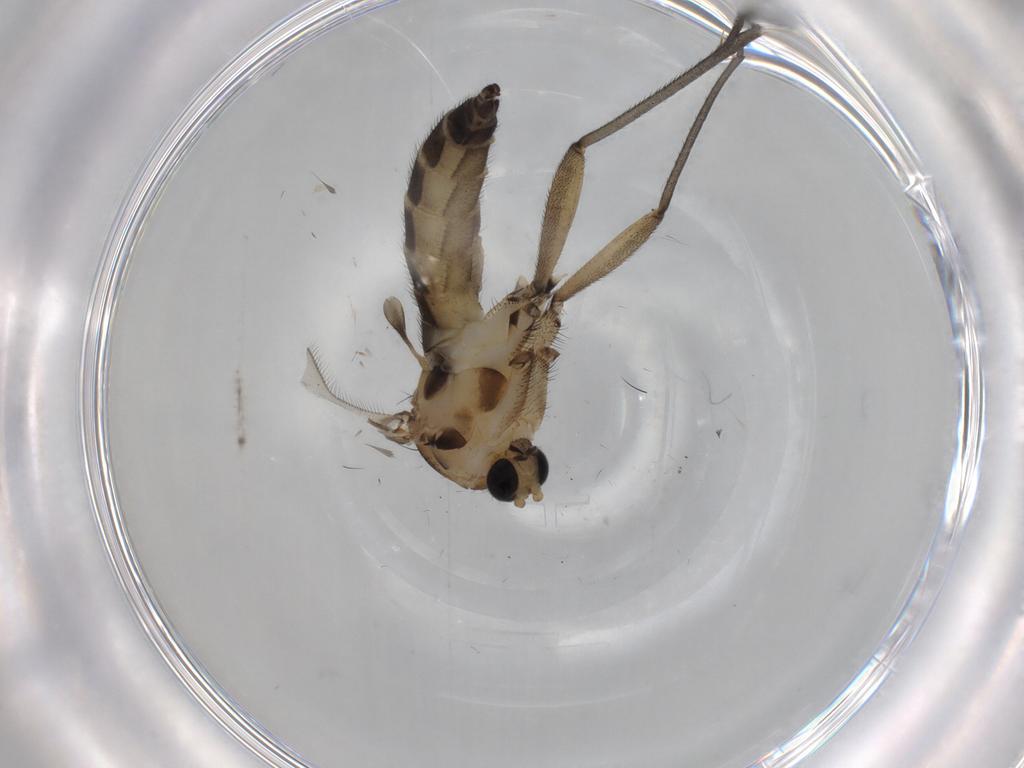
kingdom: Animalia
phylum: Arthropoda
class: Insecta
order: Diptera
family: Sciaridae
